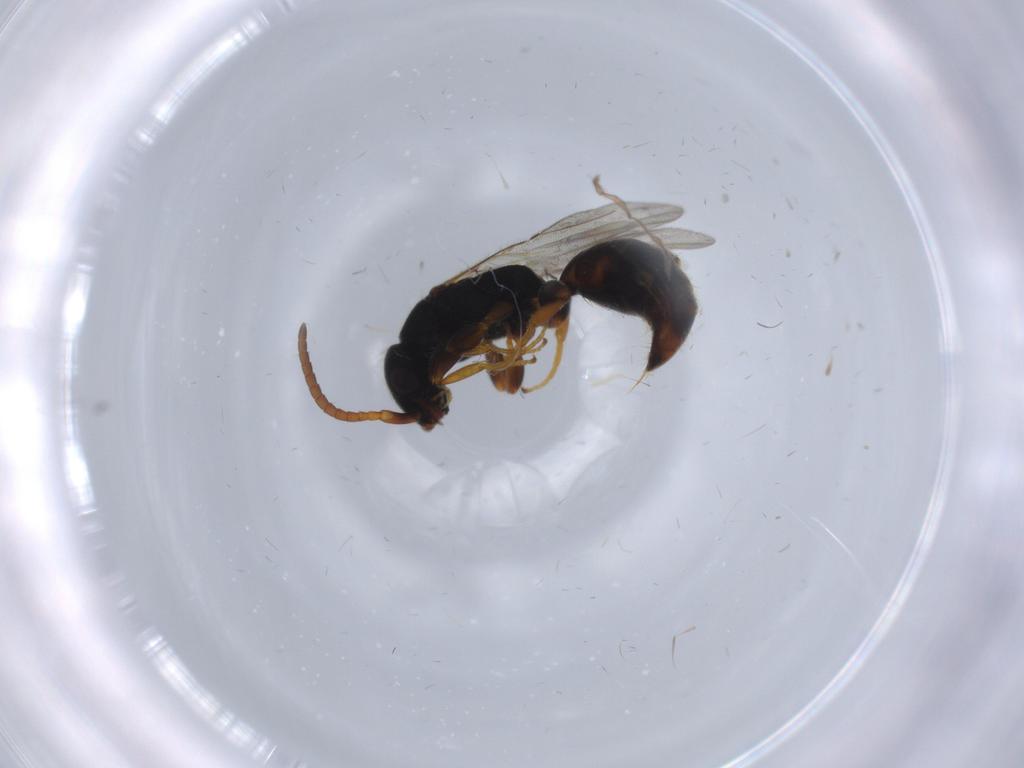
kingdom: Animalia
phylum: Arthropoda
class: Insecta
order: Hymenoptera
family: Bethylidae
